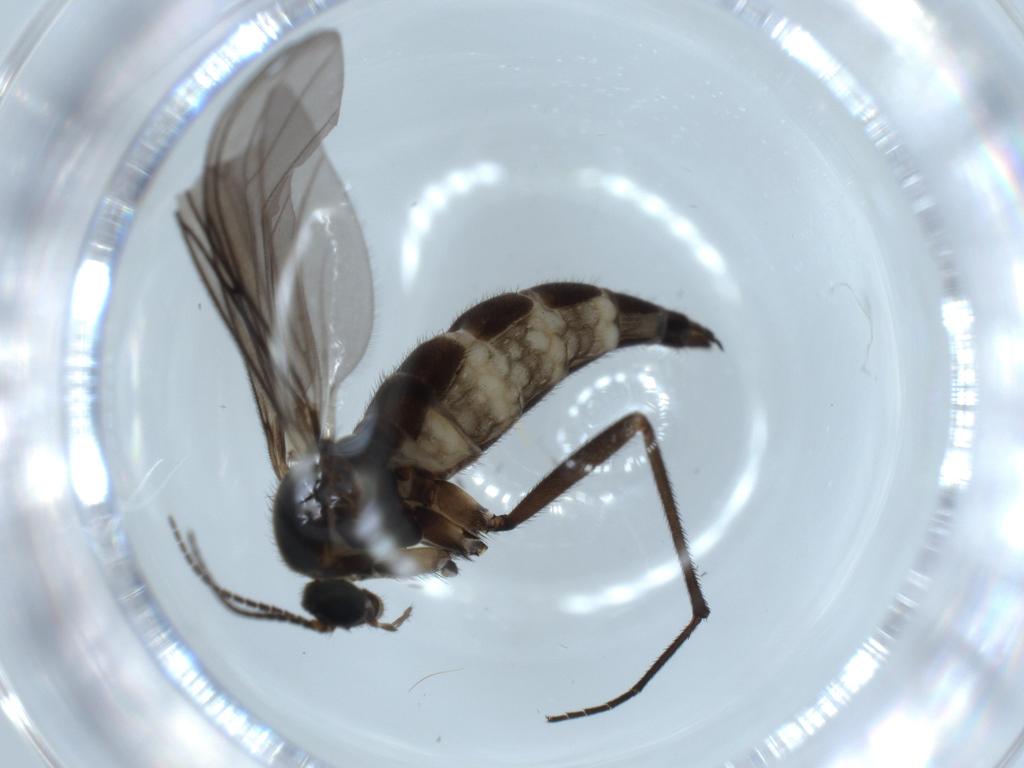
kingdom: Animalia
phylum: Arthropoda
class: Insecta
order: Diptera
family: Sciaridae
